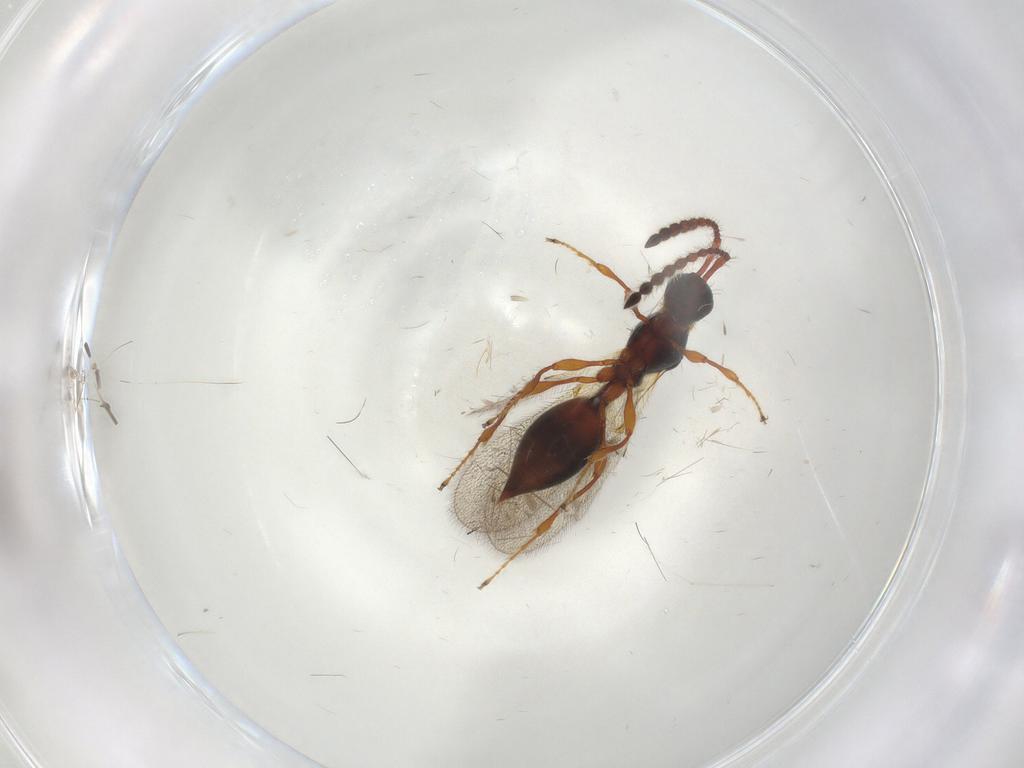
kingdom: Animalia
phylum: Arthropoda
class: Insecta
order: Hymenoptera
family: Diapriidae
